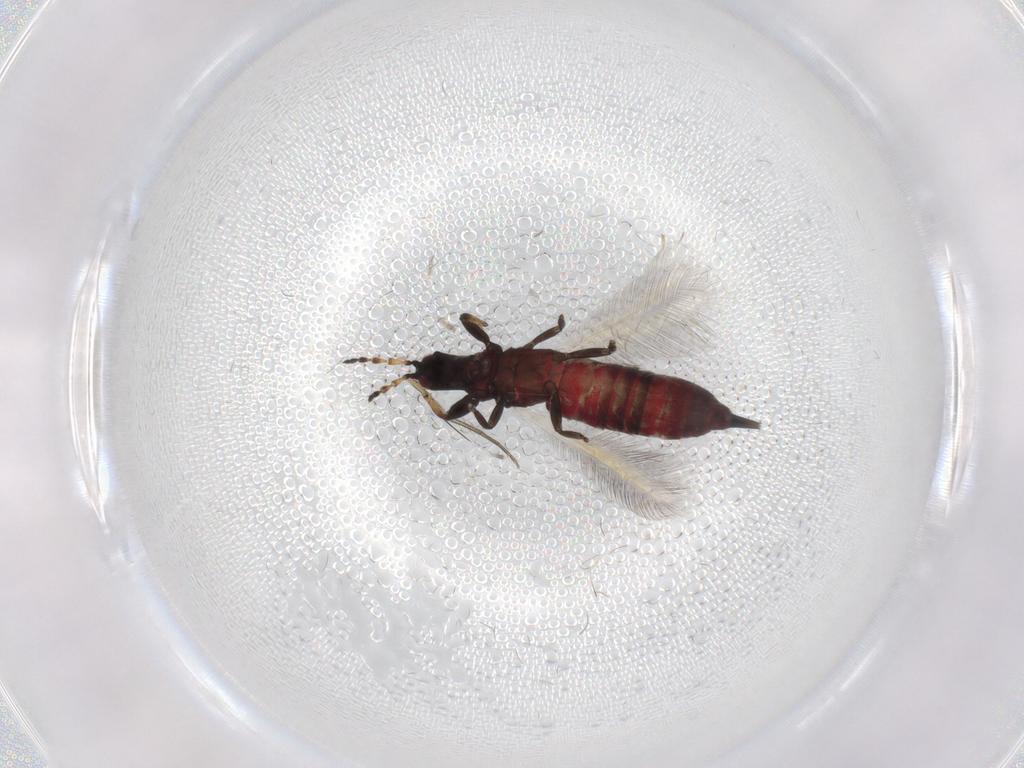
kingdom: Animalia
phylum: Arthropoda
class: Insecta
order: Thysanoptera
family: Phlaeothripidae
